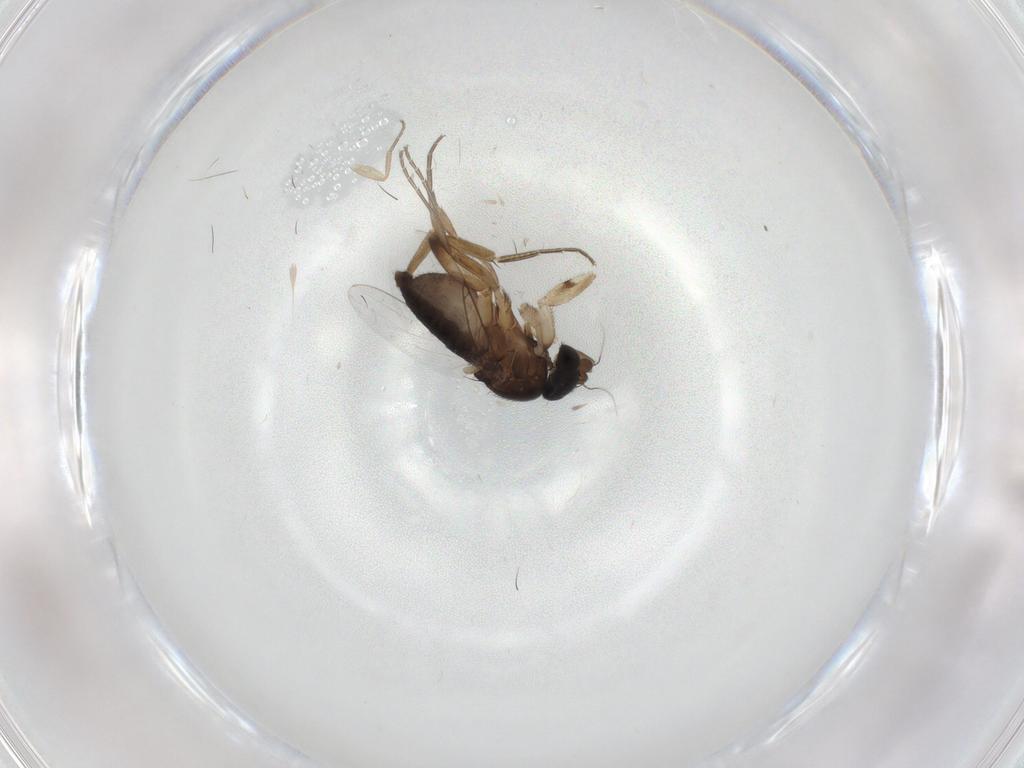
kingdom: Animalia
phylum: Arthropoda
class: Insecta
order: Diptera
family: Phoridae
